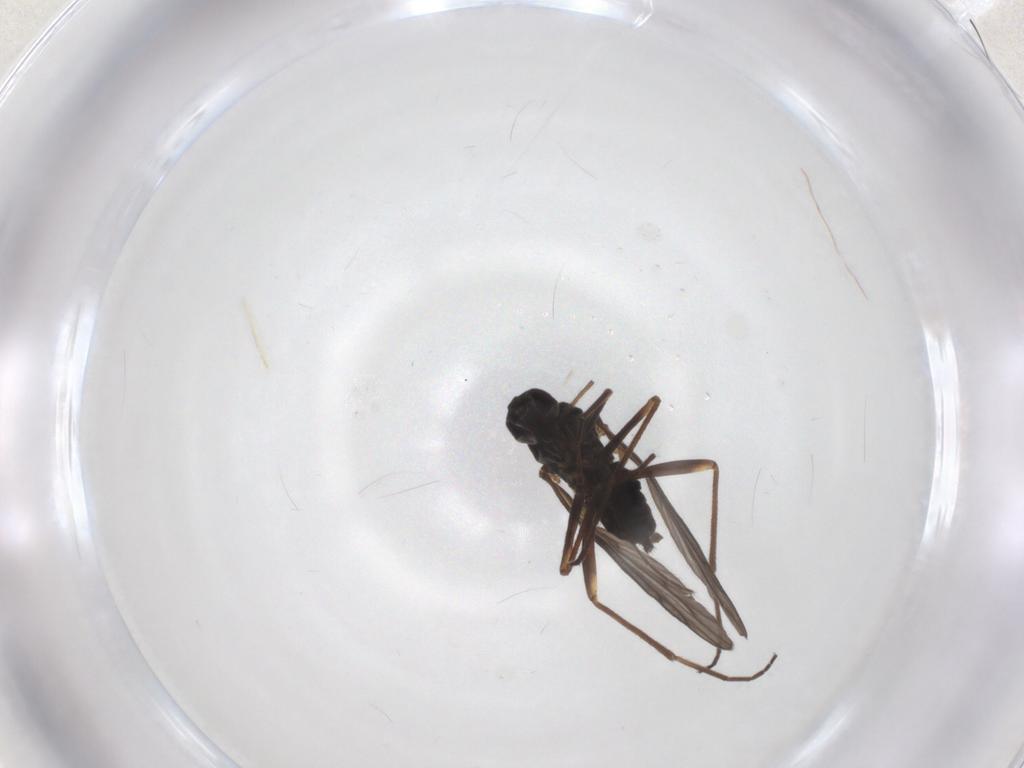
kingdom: Animalia
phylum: Arthropoda
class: Insecta
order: Diptera
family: Empididae
